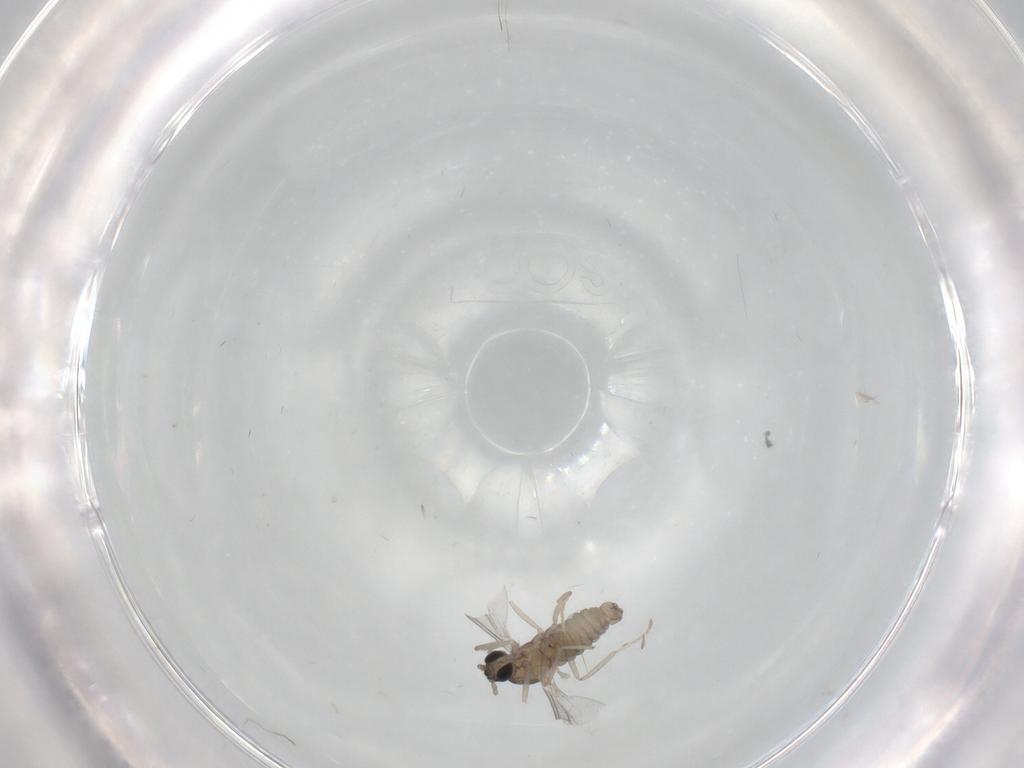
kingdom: Animalia
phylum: Arthropoda
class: Insecta
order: Diptera
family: Cecidomyiidae
